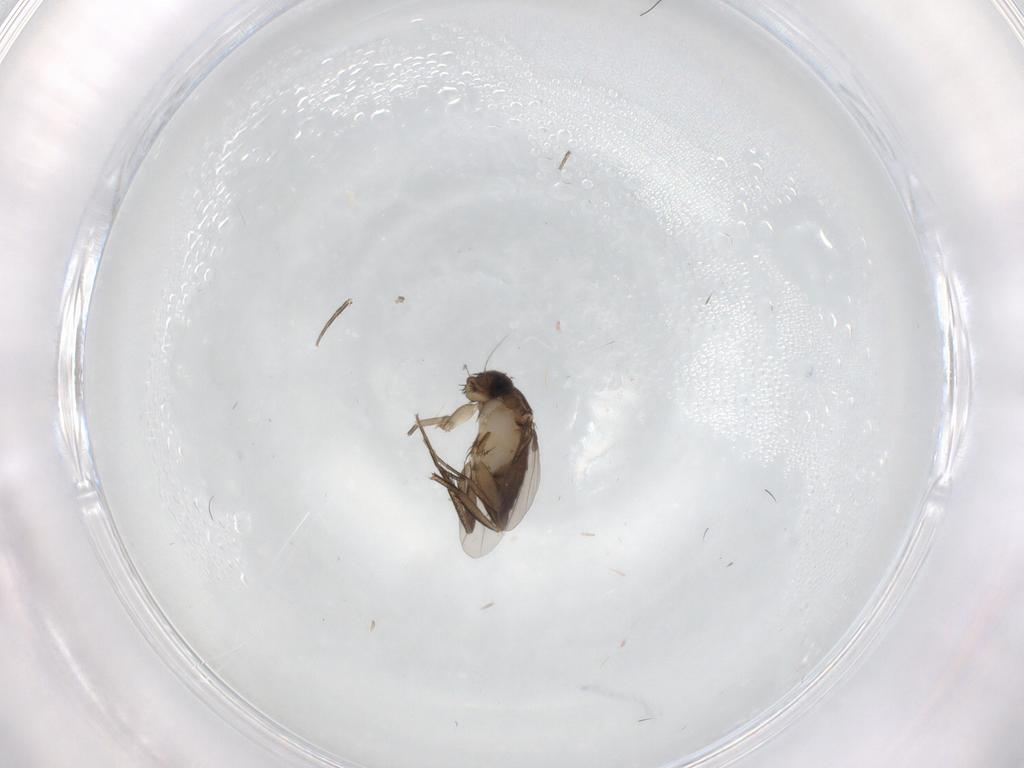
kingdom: Animalia
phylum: Arthropoda
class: Insecta
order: Diptera
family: Phoridae
